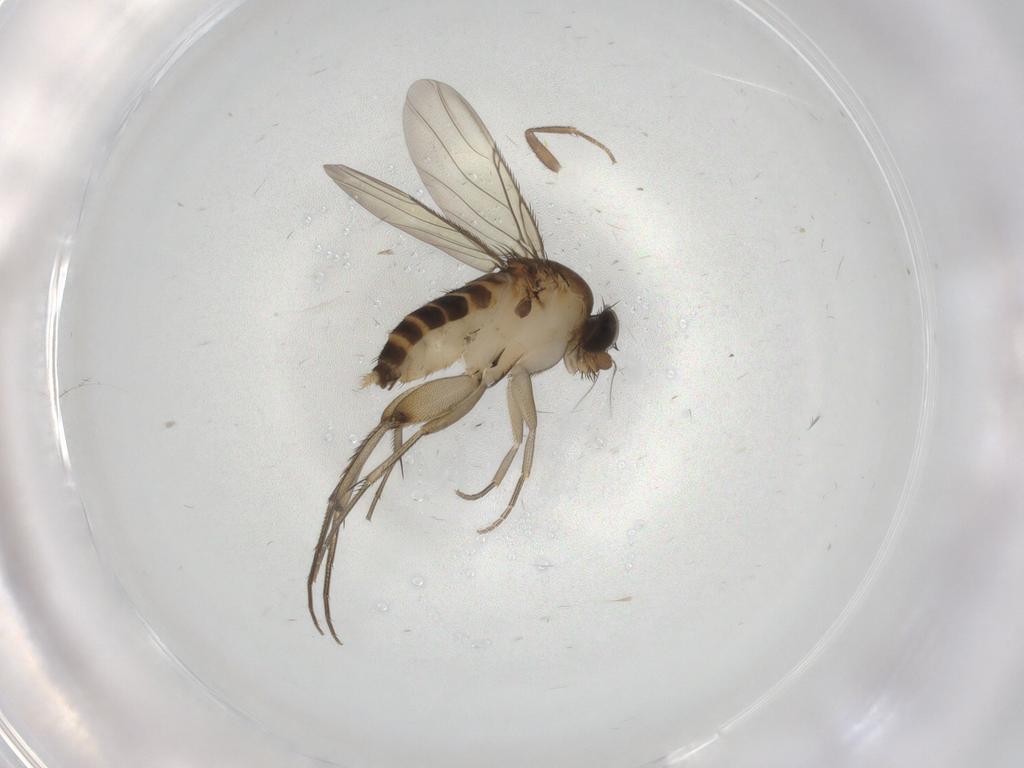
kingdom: Animalia
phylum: Arthropoda
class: Insecta
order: Diptera
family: Phoridae
